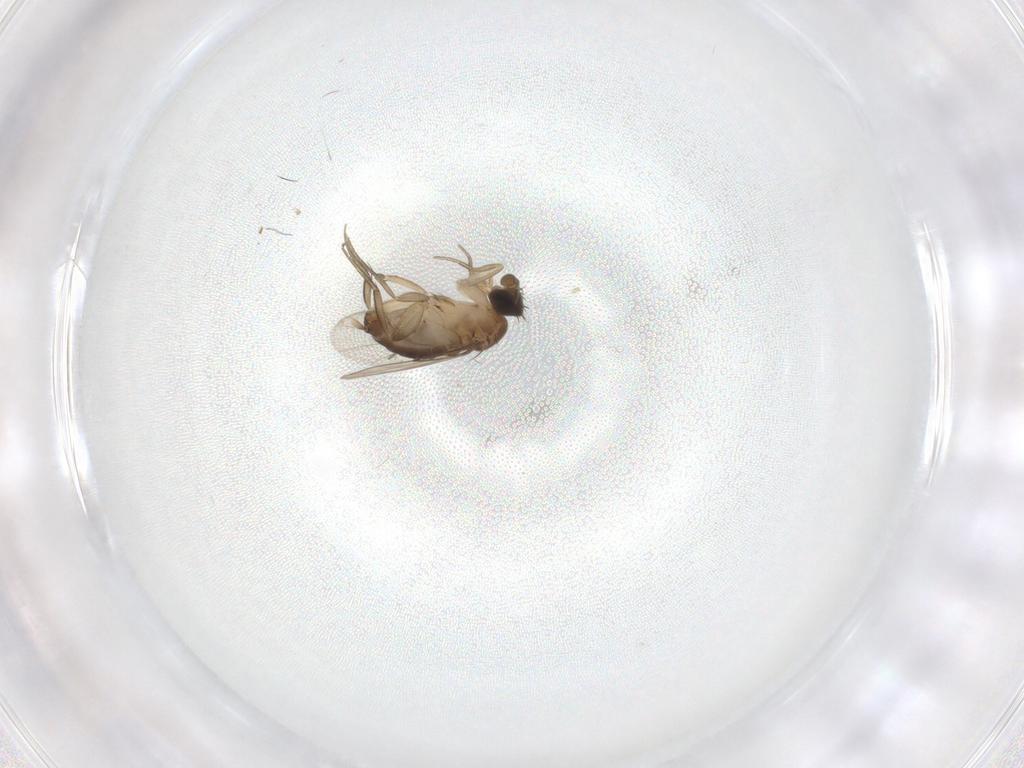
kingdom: Animalia
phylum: Arthropoda
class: Insecta
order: Diptera
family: Phoridae
